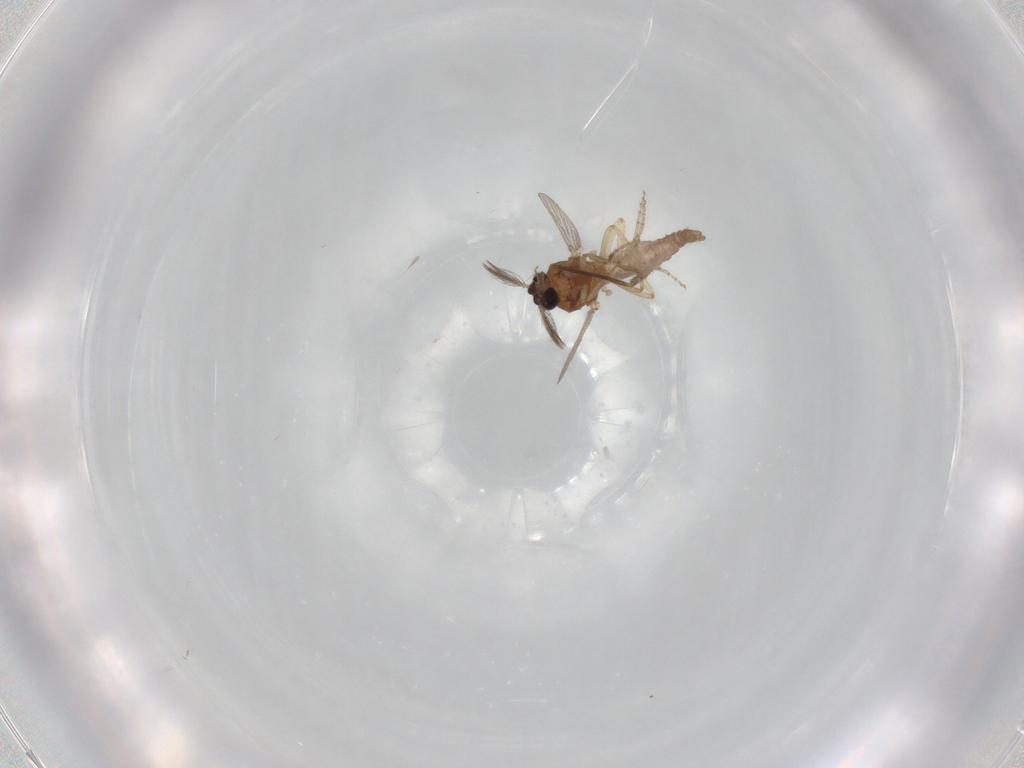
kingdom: Animalia
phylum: Arthropoda
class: Insecta
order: Diptera
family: Chironomidae
